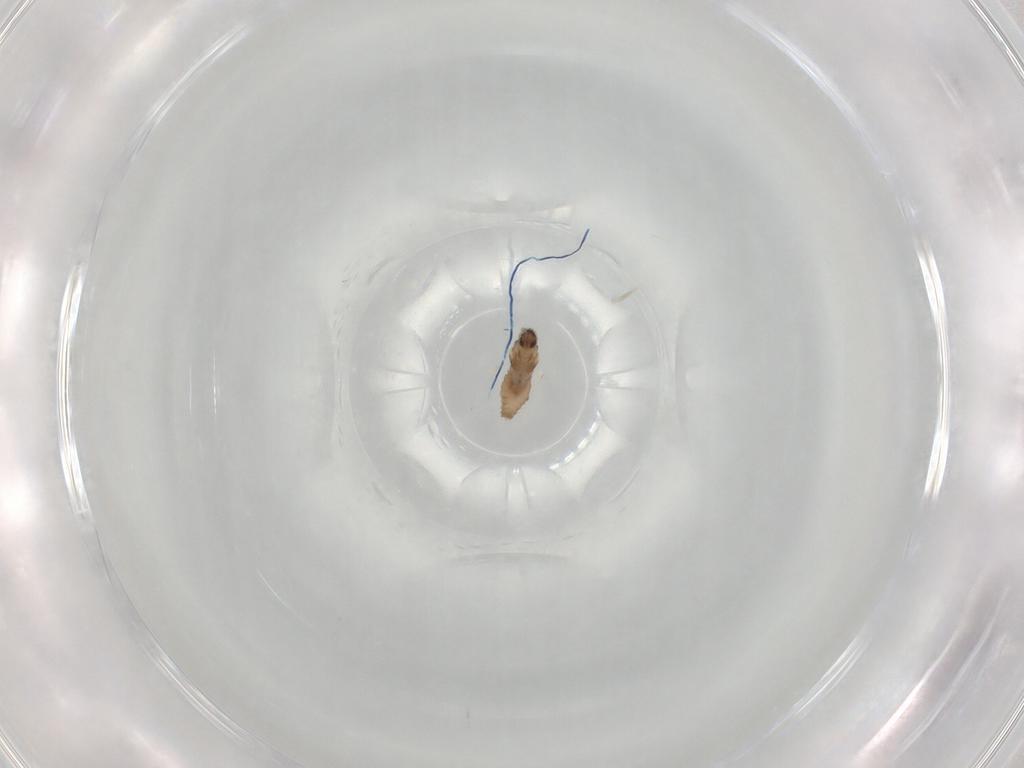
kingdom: Animalia
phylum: Arthropoda
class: Insecta
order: Diptera
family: Cecidomyiidae
